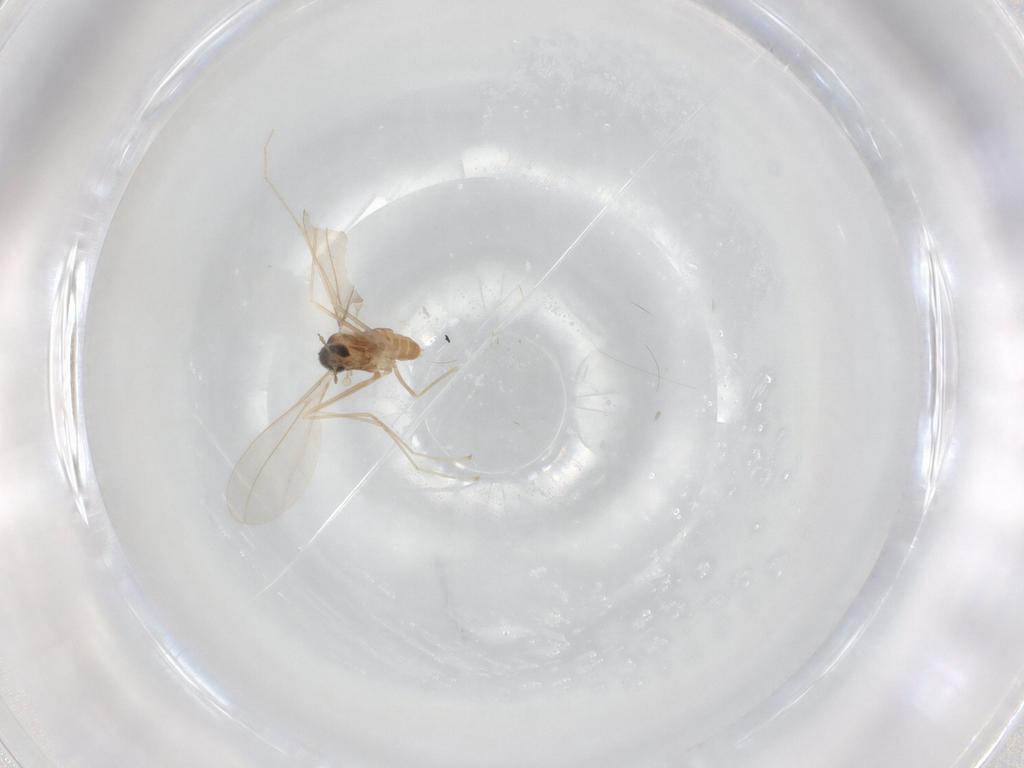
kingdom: Animalia
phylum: Arthropoda
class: Insecta
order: Diptera
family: Cecidomyiidae
